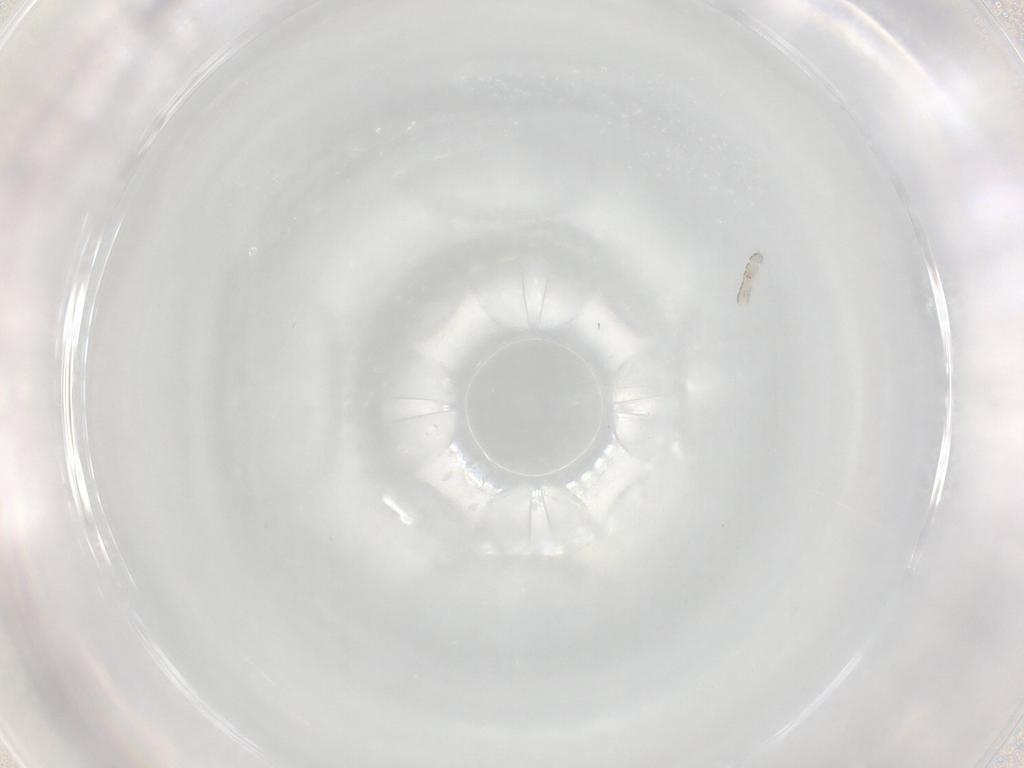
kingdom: Animalia
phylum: Arthropoda
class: Collembola
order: Entomobryomorpha
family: Isotomidae
